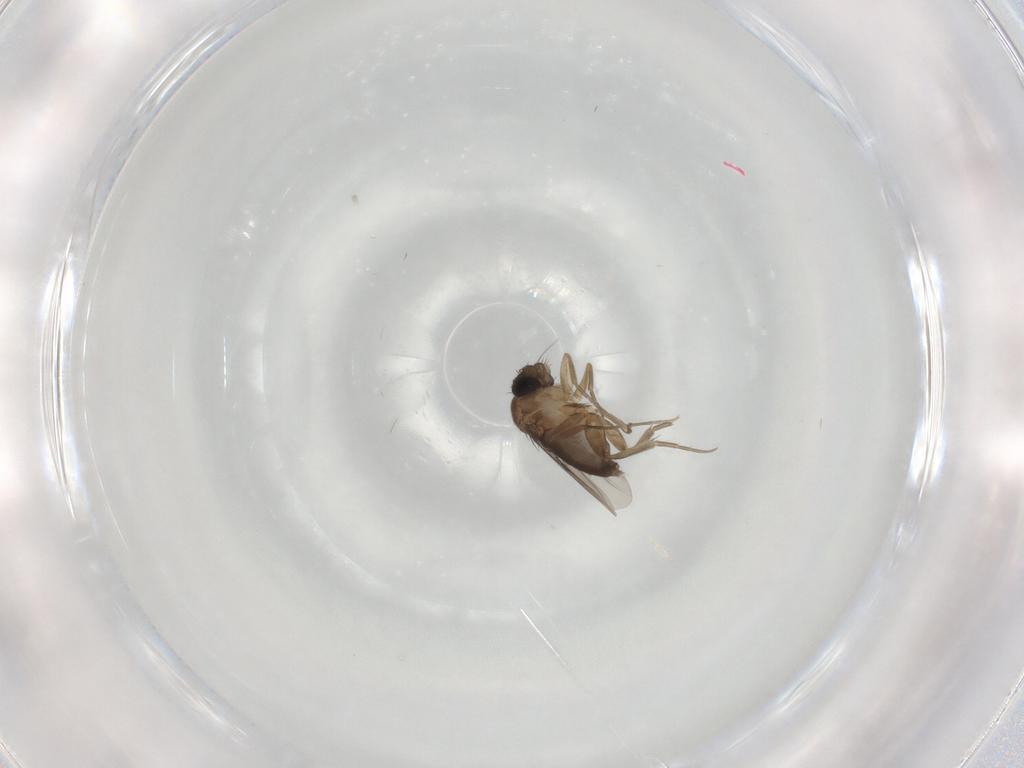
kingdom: Animalia
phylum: Arthropoda
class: Insecta
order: Diptera
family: Phoridae
